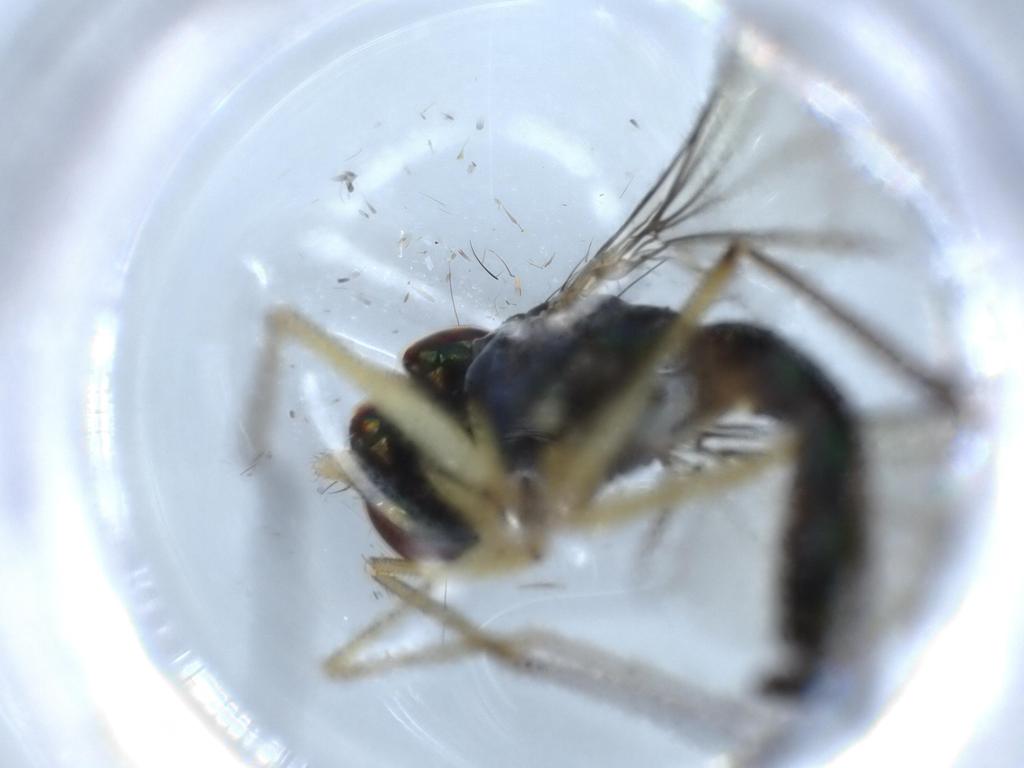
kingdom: Animalia
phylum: Arthropoda
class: Insecta
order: Diptera
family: Dolichopodidae
